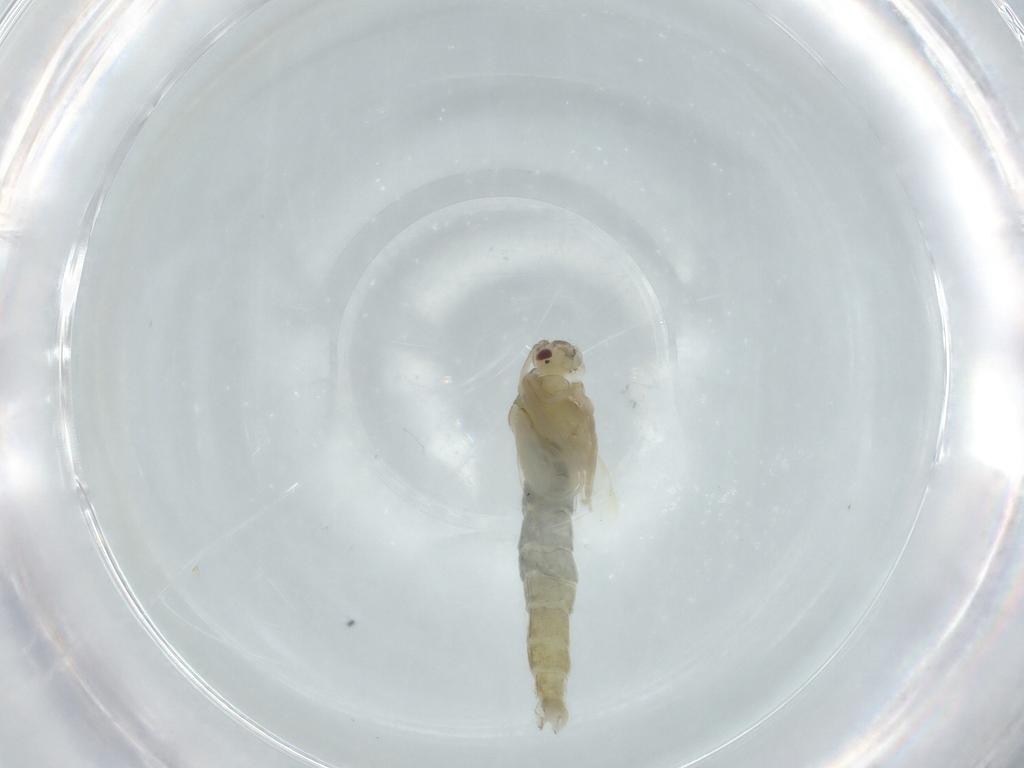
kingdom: Animalia
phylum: Arthropoda
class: Insecta
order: Diptera
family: Chironomidae
